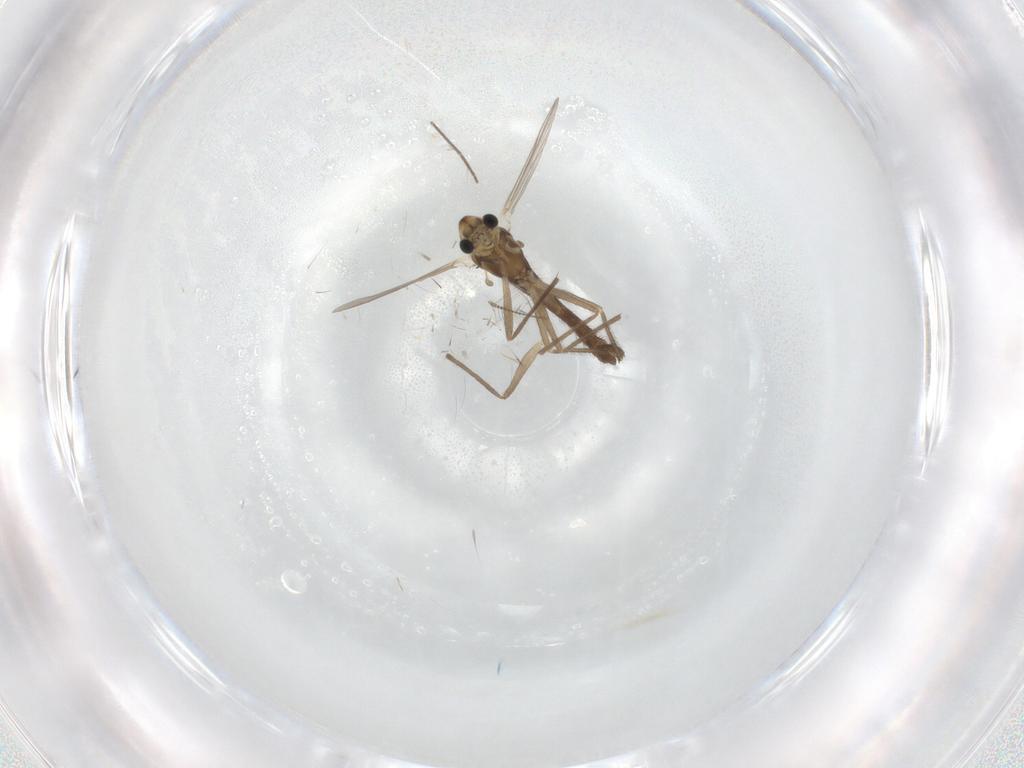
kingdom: Animalia
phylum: Arthropoda
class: Insecta
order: Diptera
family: Chironomidae
